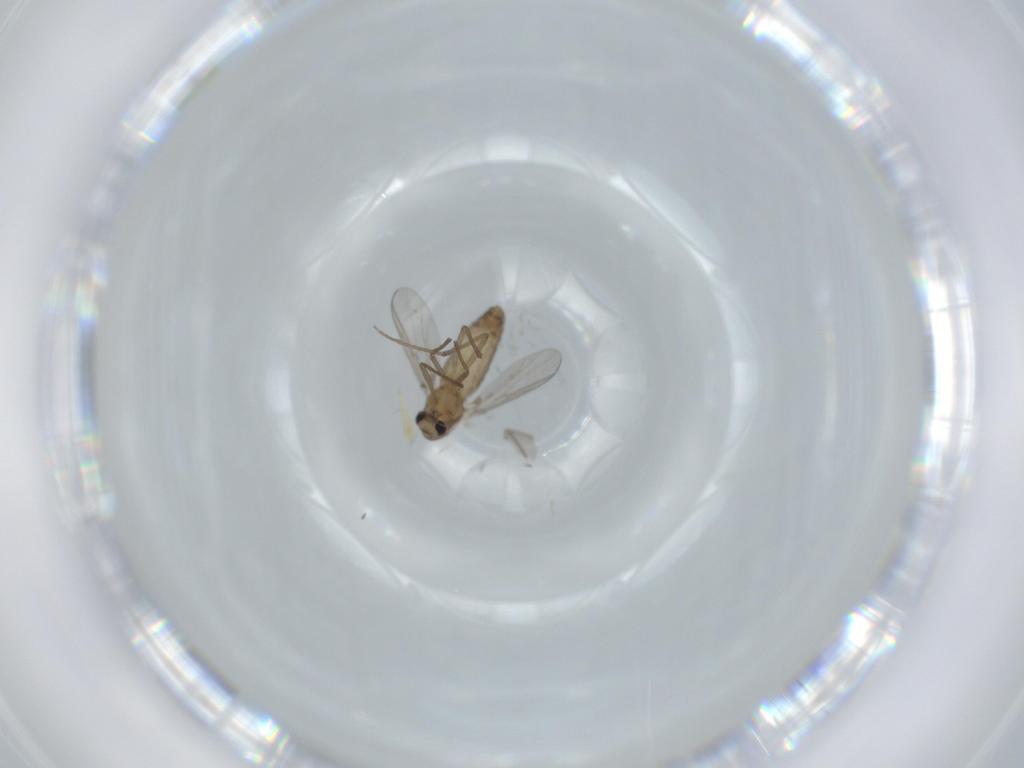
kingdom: Animalia
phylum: Arthropoda
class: Insecta
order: Diptera
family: Chironomidae
